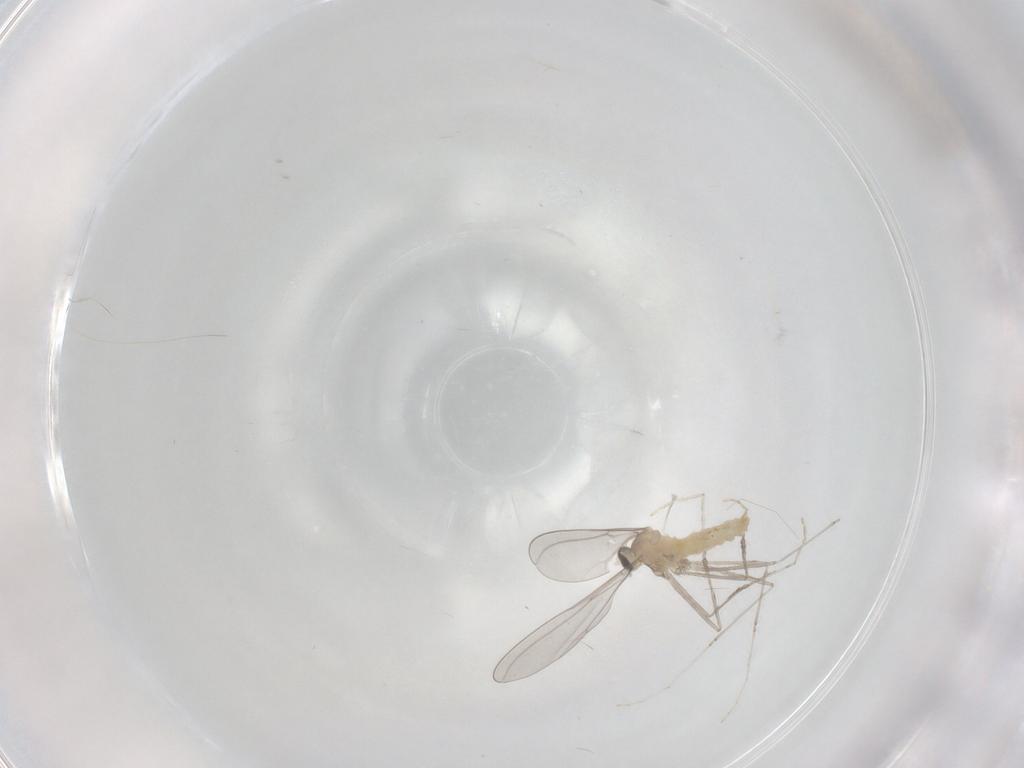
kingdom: Animalia
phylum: Arthropoda
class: Insecta
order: Diptera
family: Cecidomyiidae
